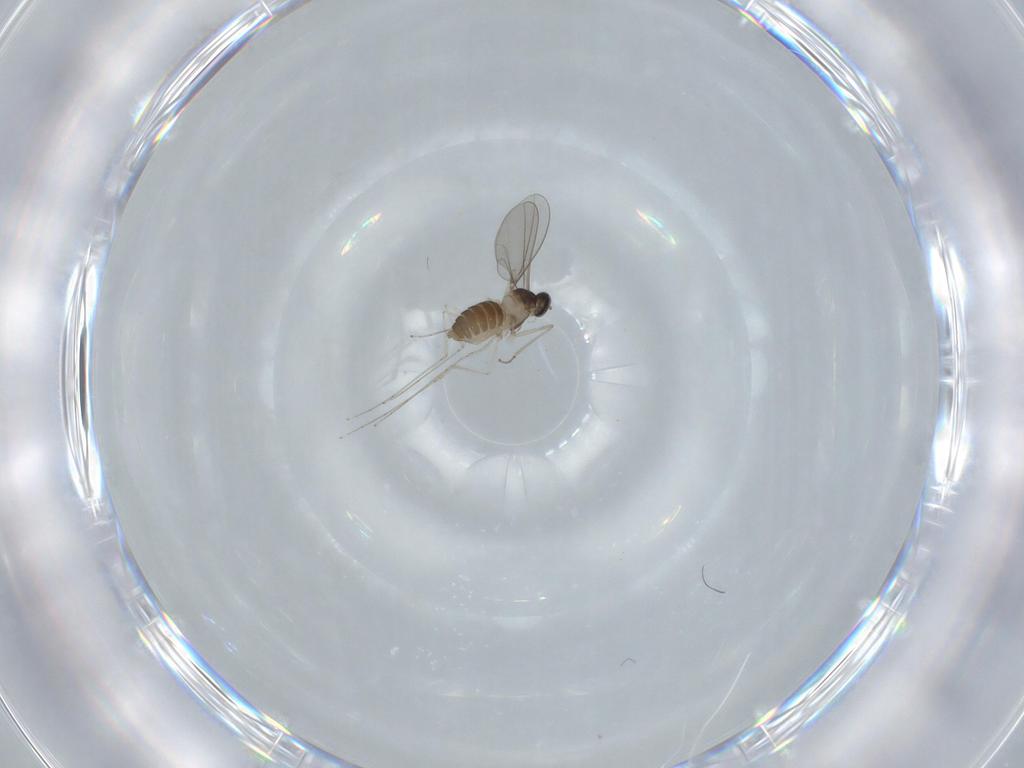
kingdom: Animalia
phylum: Arthropoda
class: Insecta
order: Diptera
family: Cecidomyiidae
